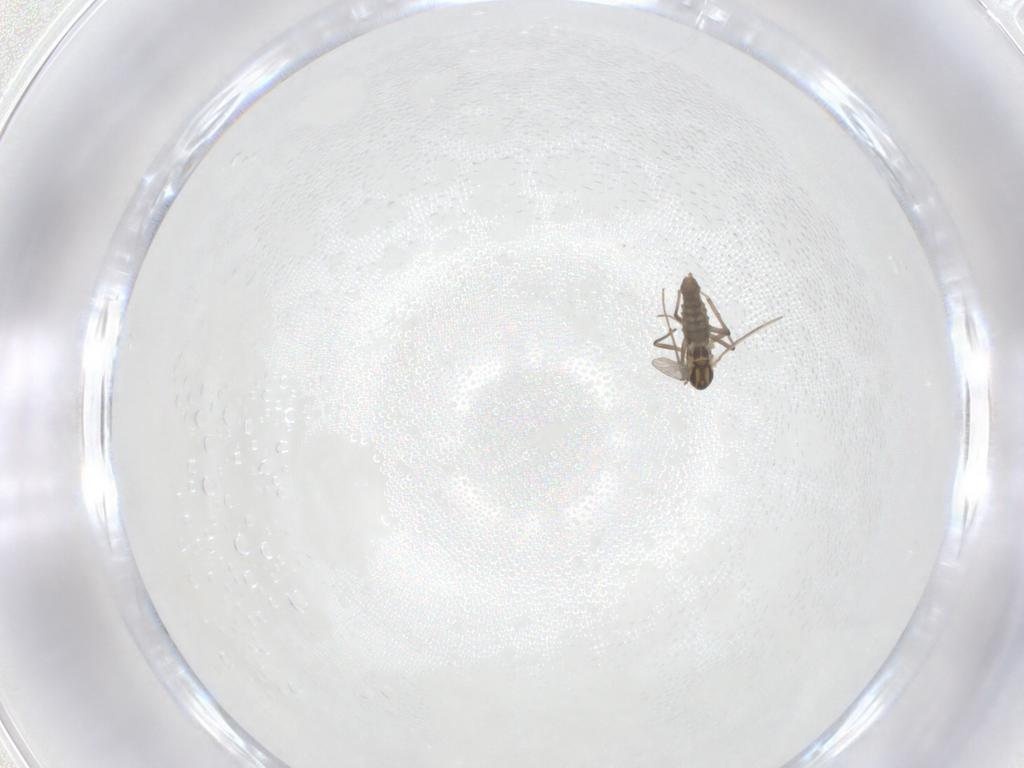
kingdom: Animalia
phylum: Arthropoda
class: Insecta
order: Diptera
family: Chironomidae
